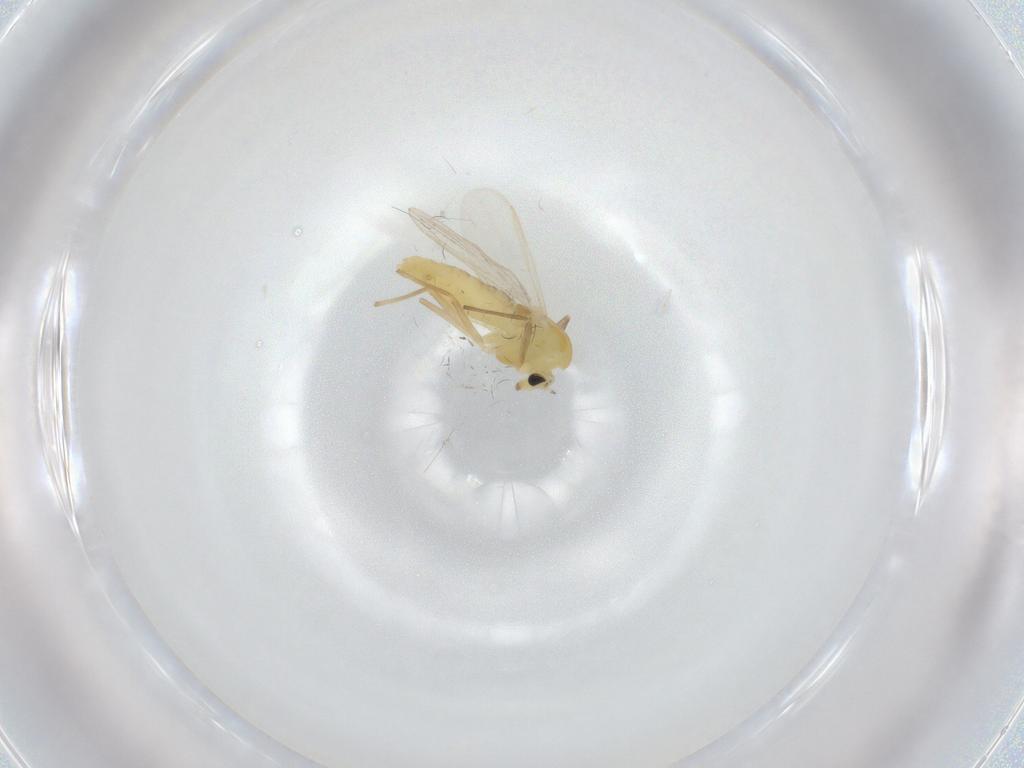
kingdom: Animalia
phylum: Arthropoda
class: Insecta
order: Diptera
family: Chironomidae
